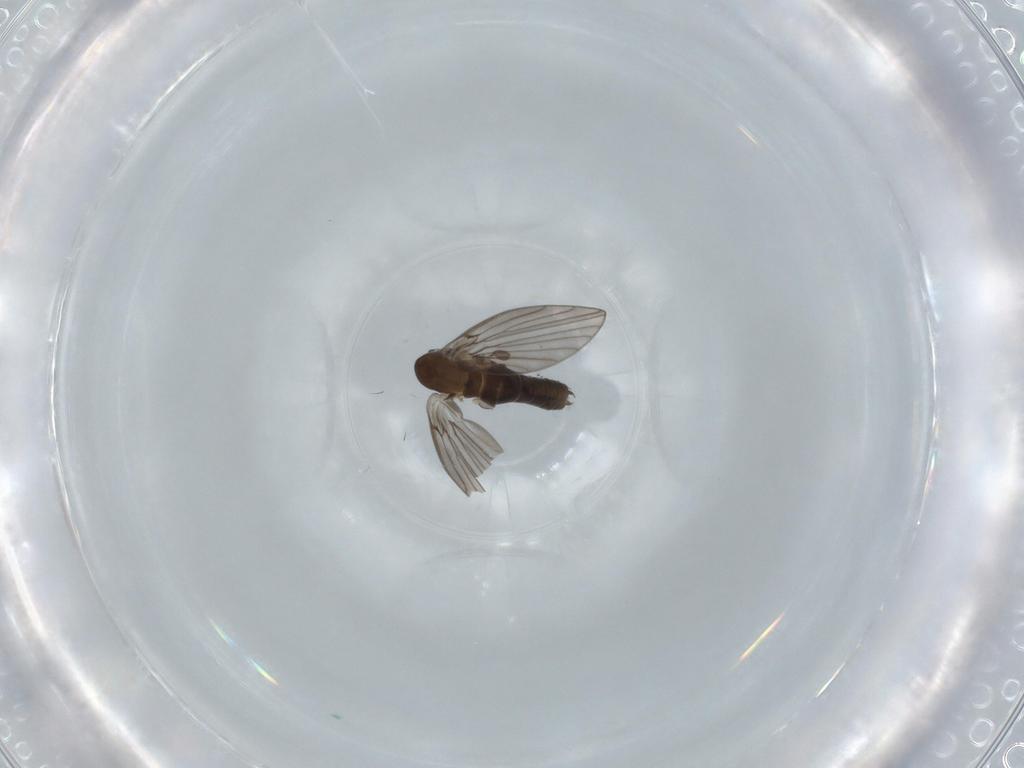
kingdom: Animalia
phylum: Arthropoda
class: Insecta
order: Diptera
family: Psychodidae
